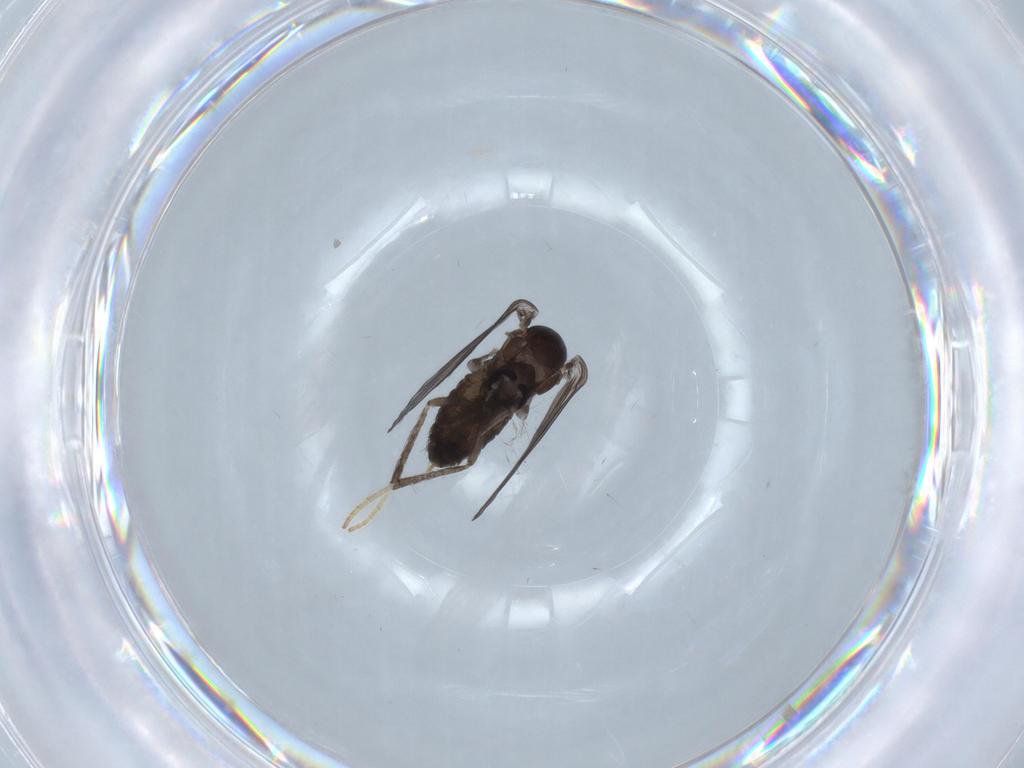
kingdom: Animalia
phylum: Arthropoda
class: Insecta
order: Diptera
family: Psychodidae
